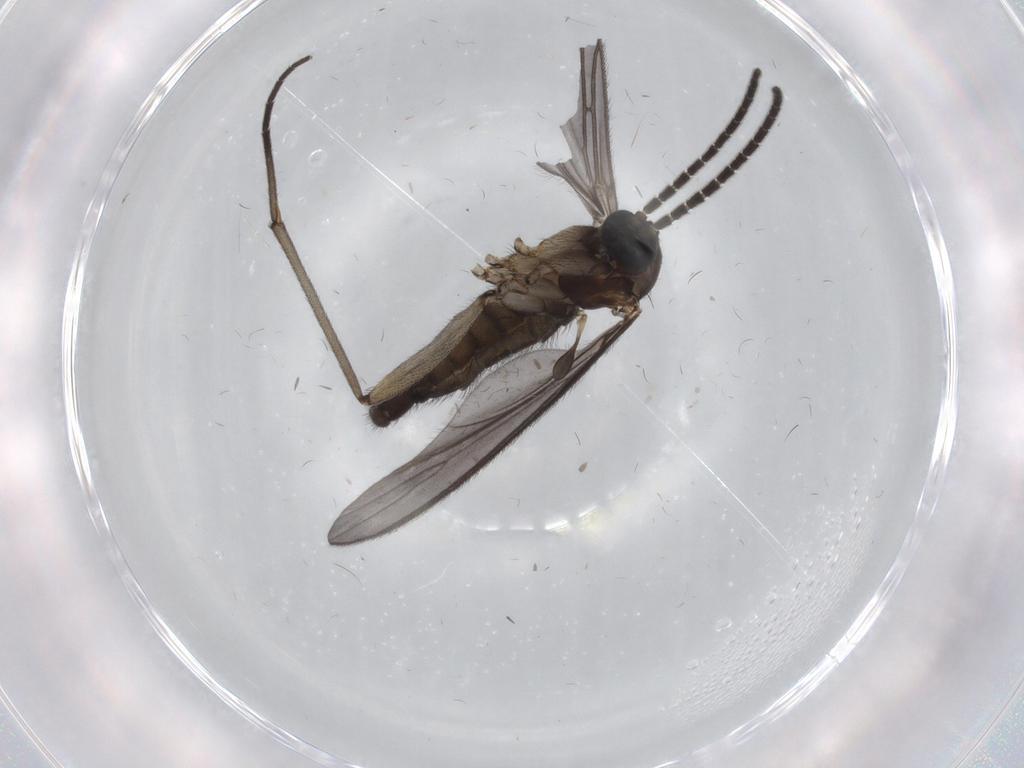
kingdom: Animalia
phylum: Arthropoda
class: Insecta
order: Diptera
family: Sciaridae
